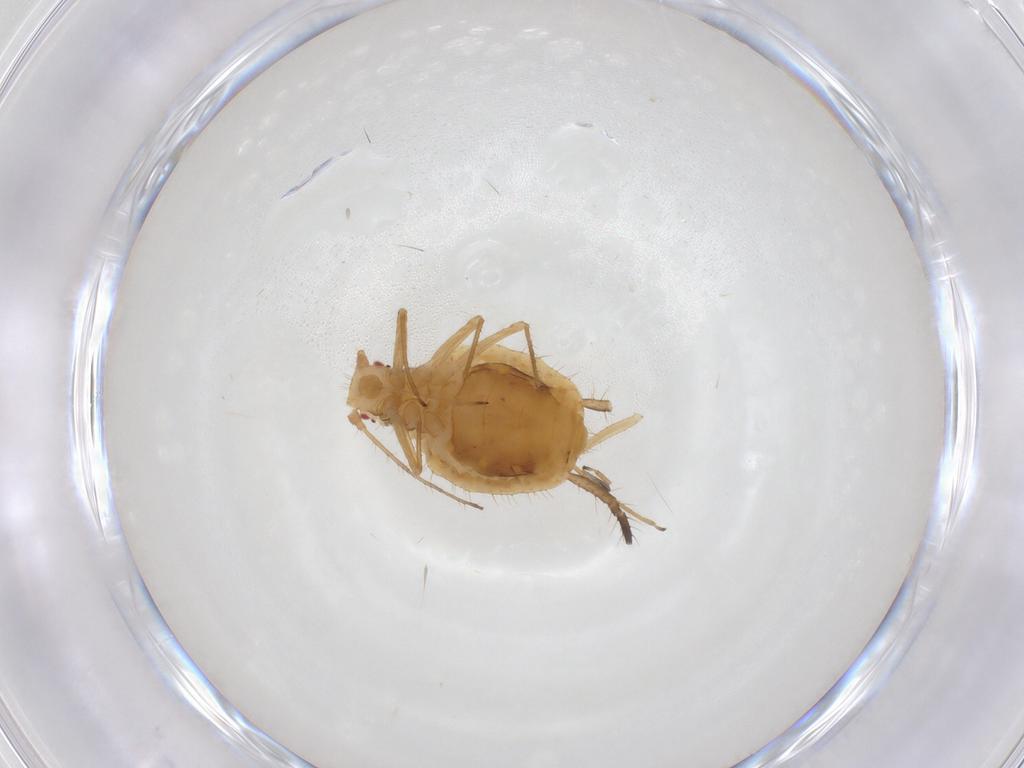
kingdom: Animalia
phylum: Arthropoda
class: Insecta
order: Hemiptera
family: Aphididae
